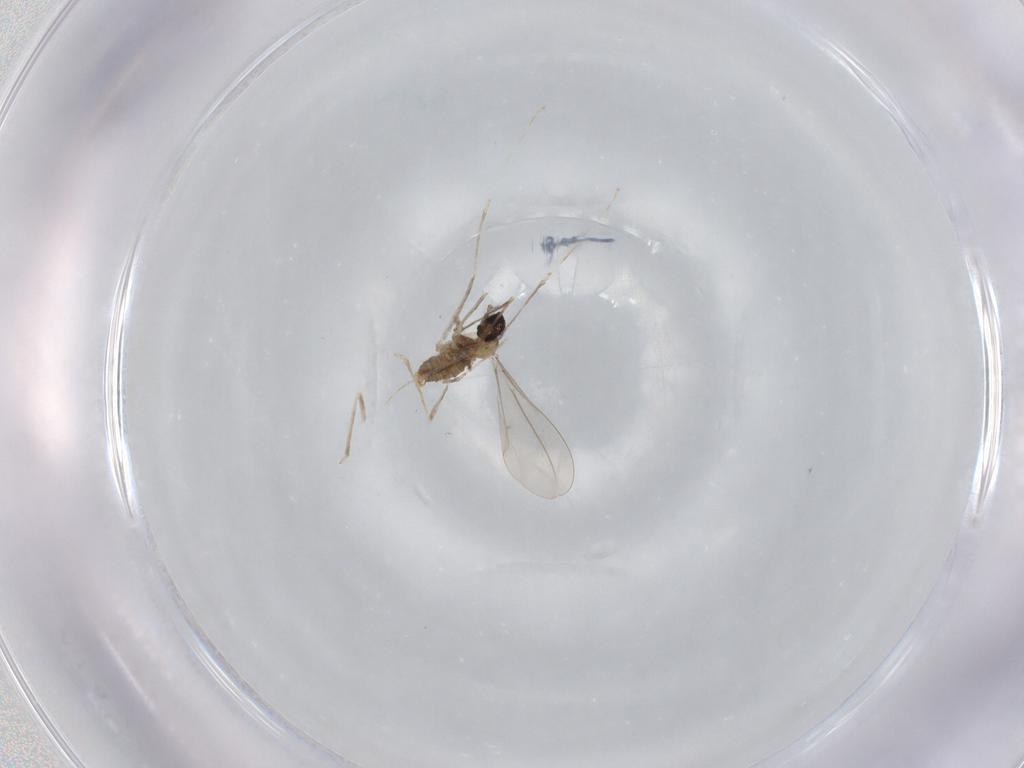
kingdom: Animalia
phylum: Arthropoda
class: Insecta
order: Diptera
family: Cecidomyiidae
